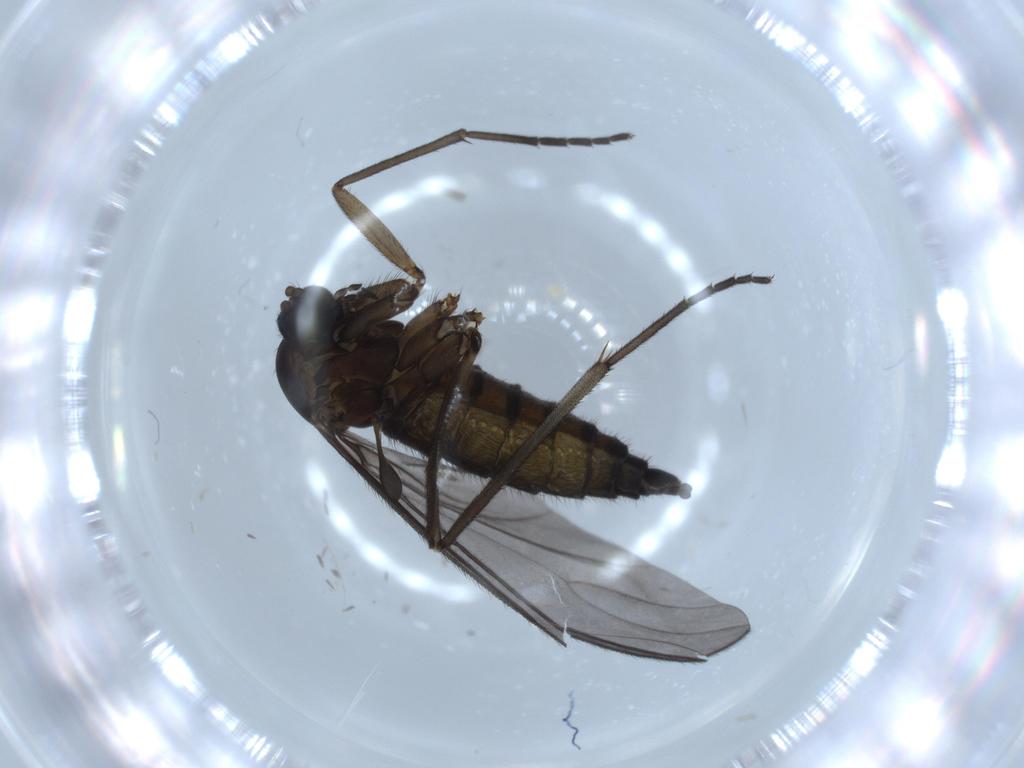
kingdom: Animalia
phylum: Arthropoda
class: Insecta
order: Diptera
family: Sciaridae
